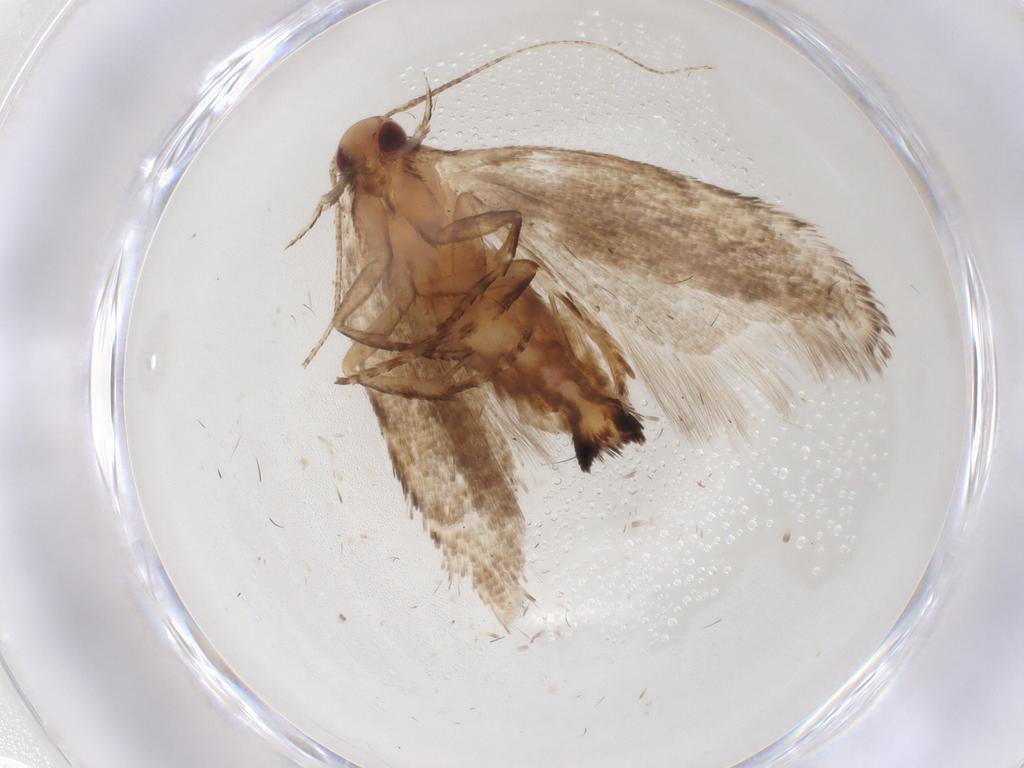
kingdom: Animalia
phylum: Arthropoda
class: Insecta
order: Lepidoptera
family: Gelechiidae
